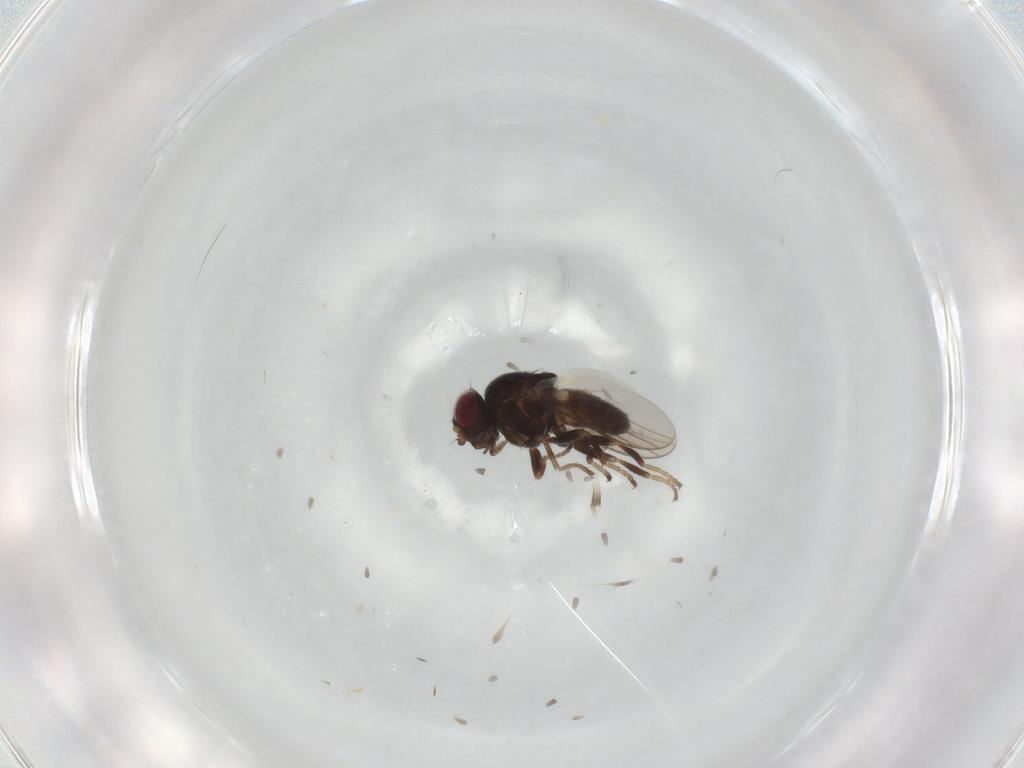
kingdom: Animalia
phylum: Arthropoda
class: Insecta
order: Diptera
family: Chloropidae
